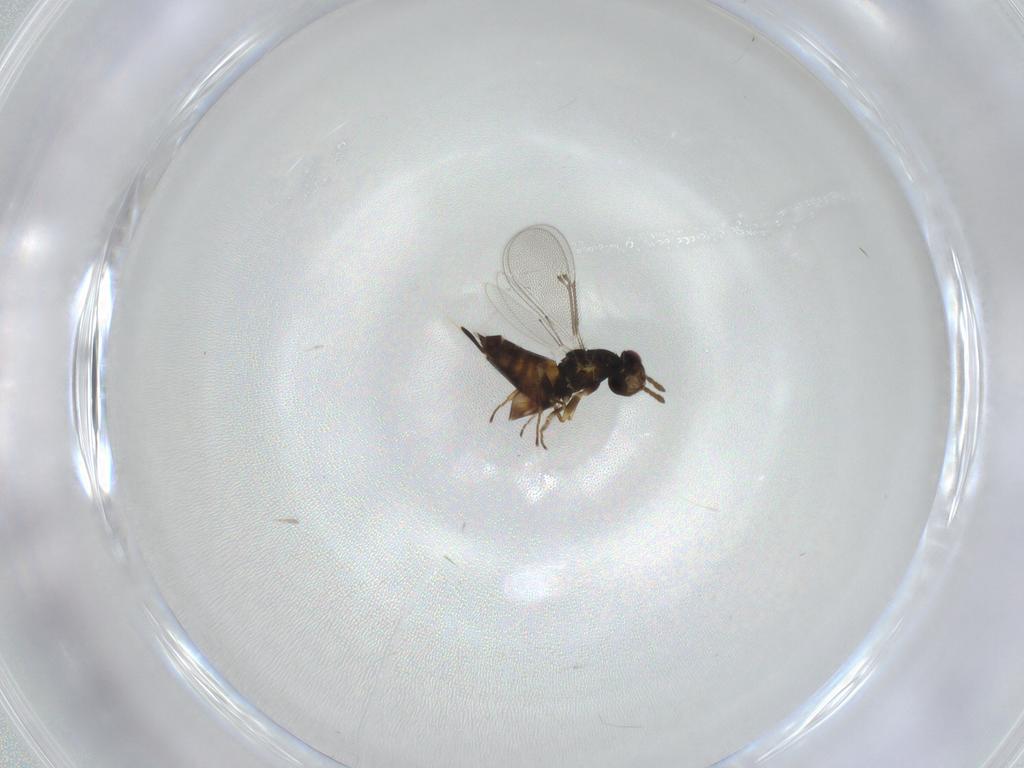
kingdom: Animalia
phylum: Arthropoda
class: Insecta
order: Hymenoptera
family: Eulophidae
